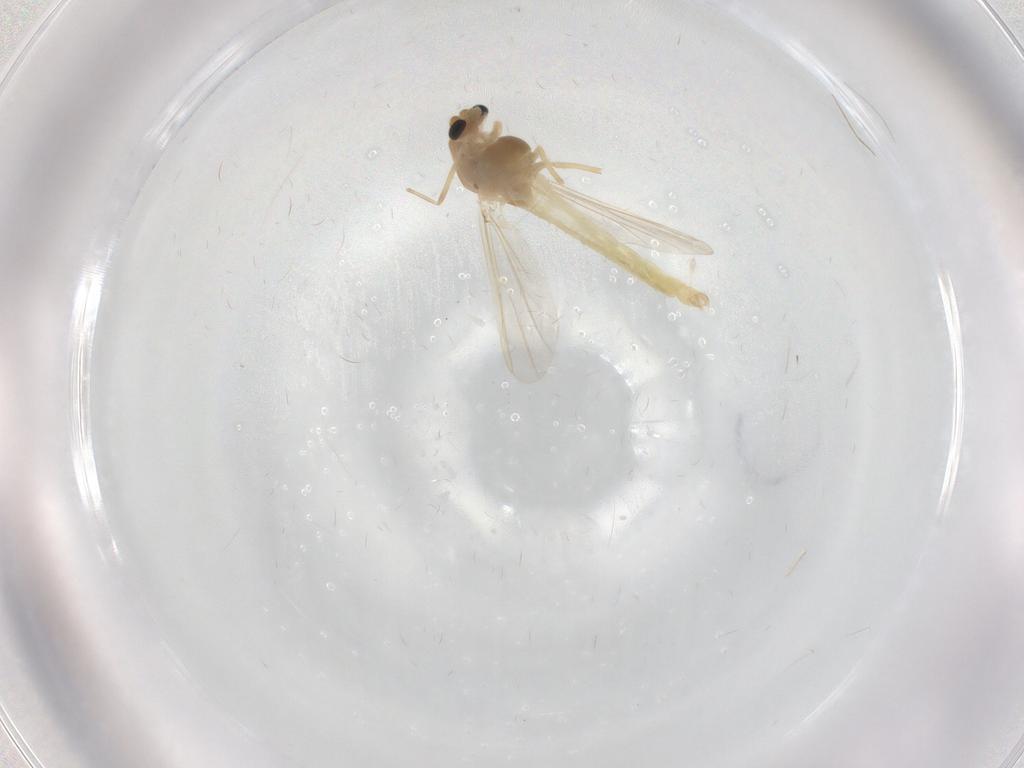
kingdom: Animalia
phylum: Arthropoda
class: Insecta
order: Diptera
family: Chironomidae
